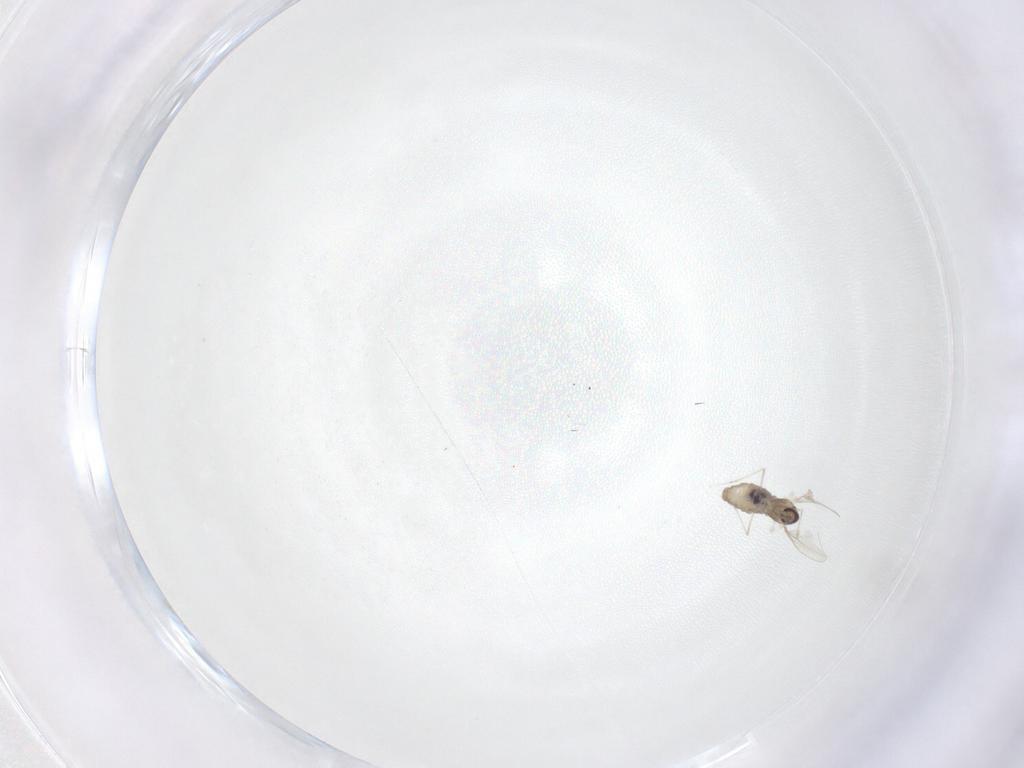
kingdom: Animalia
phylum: Arthropoda
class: Insecta
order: Diptera
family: Cecidomyiidae
